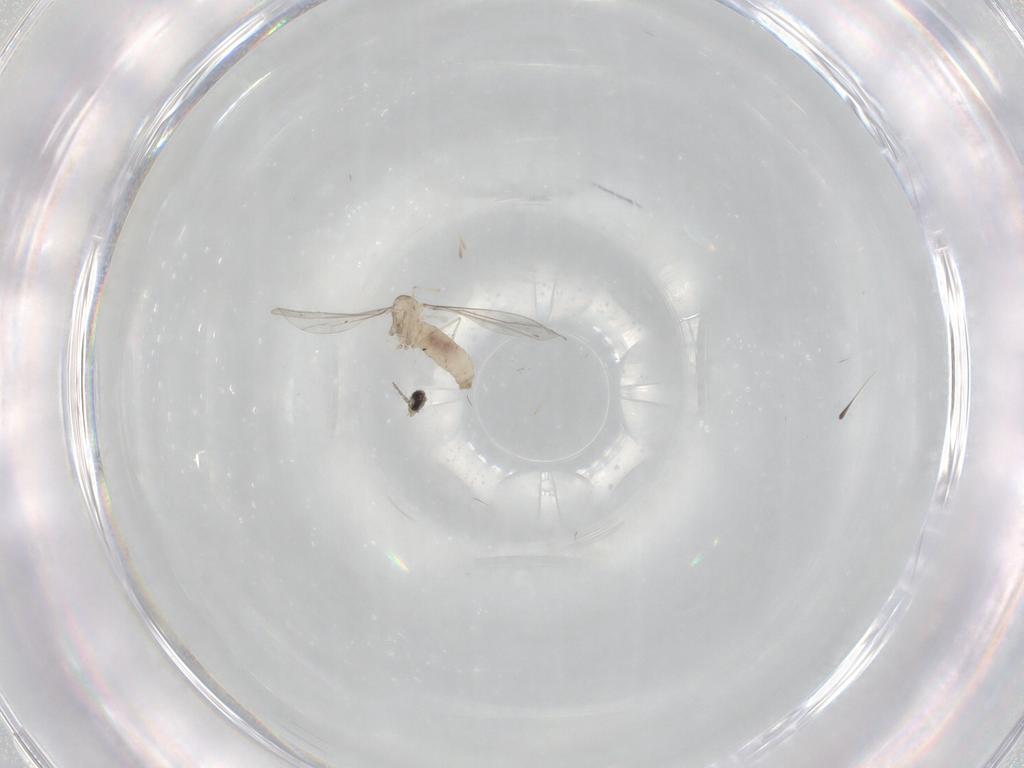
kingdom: Animalia
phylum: Arthropoda
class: Insecta
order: Diptera
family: Cecidomyiidae
